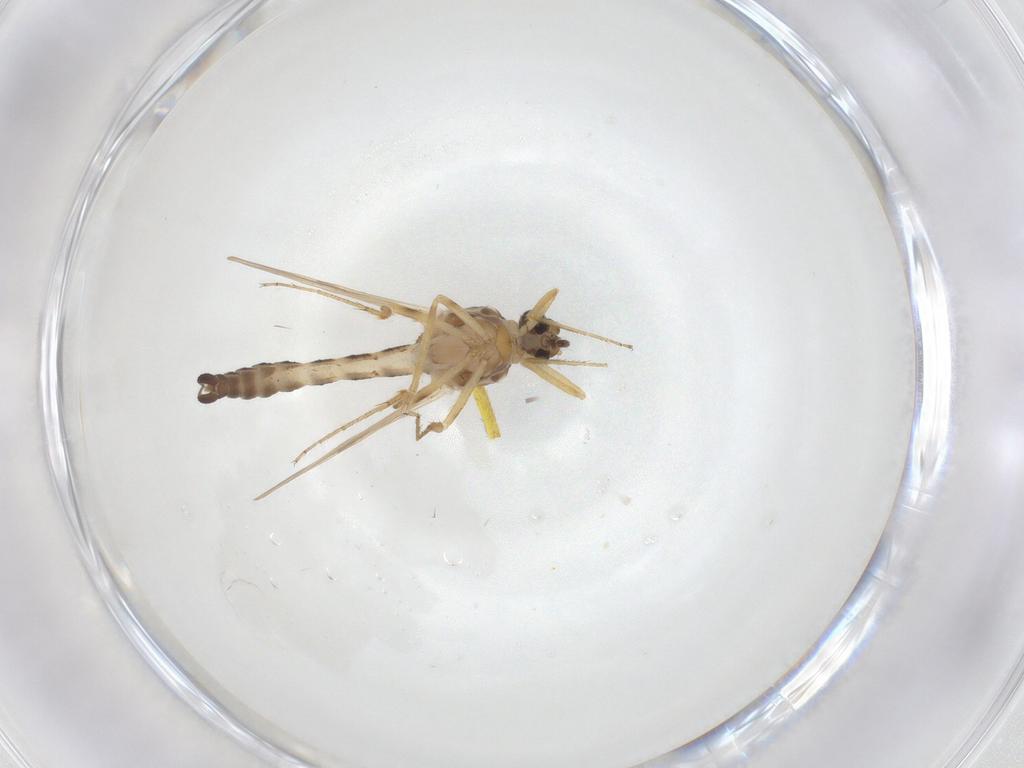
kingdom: Animalia
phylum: Arthropoda
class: Insecta
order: Diptera
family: Ceratopogonidae
